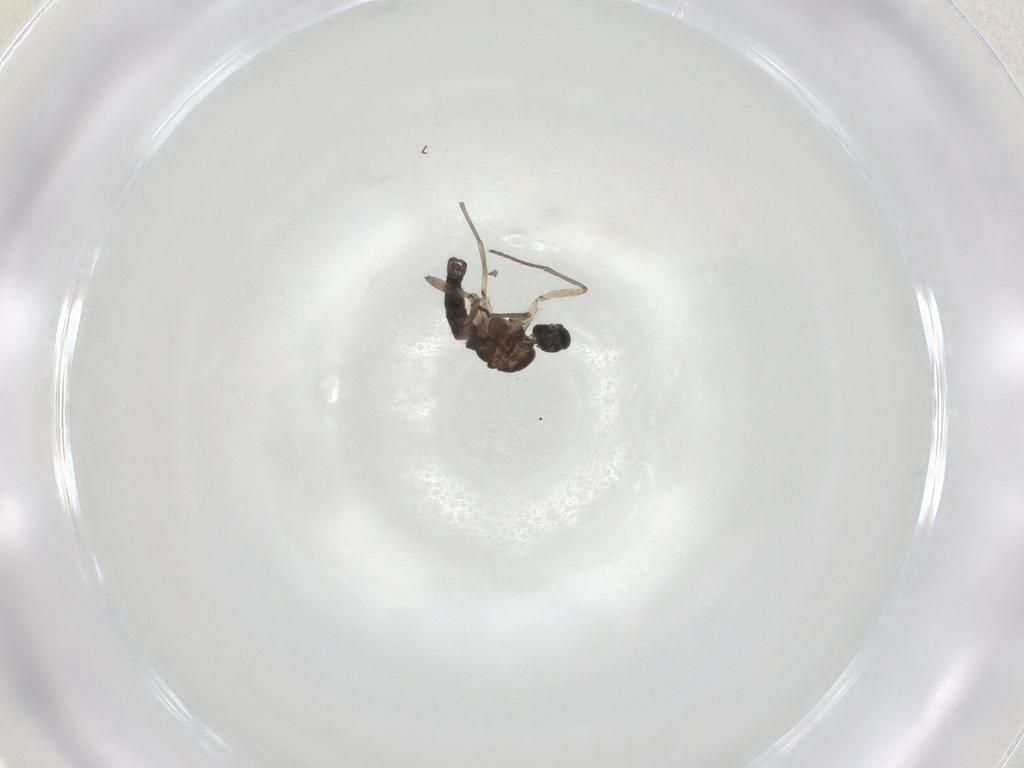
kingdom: Animalia
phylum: Arthropoda
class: Insecta
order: Diptera
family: Sciaridae
